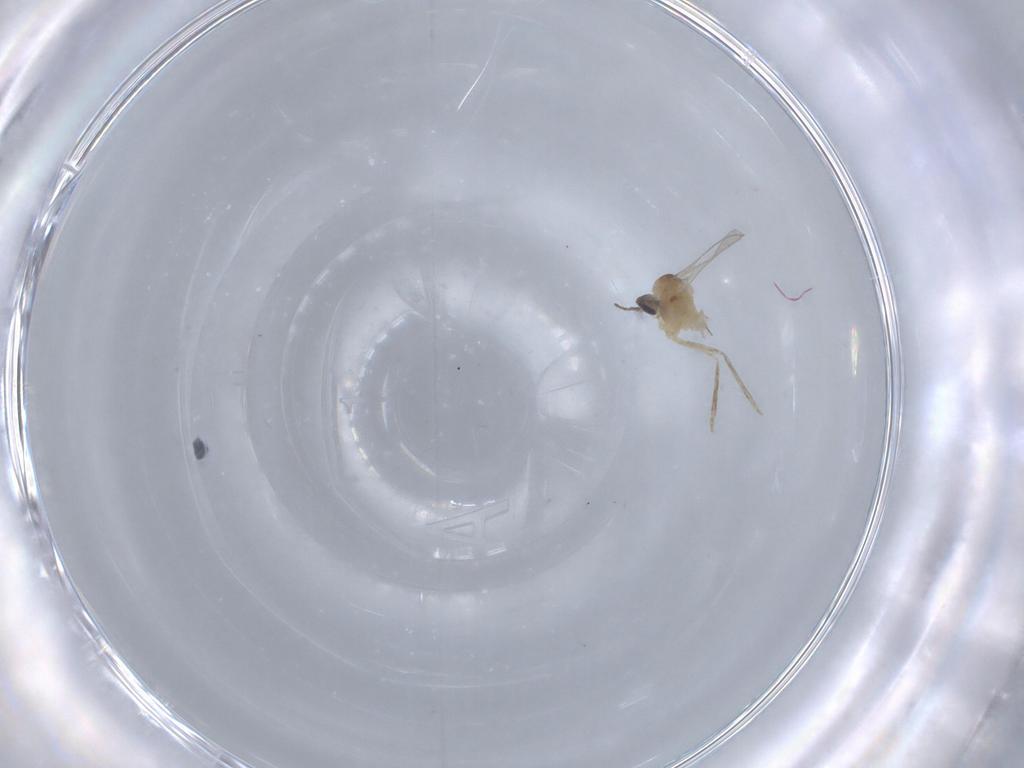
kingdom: Animalia
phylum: Arthropoda
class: Insecta
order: Diptera
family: Cecidomyiidae
